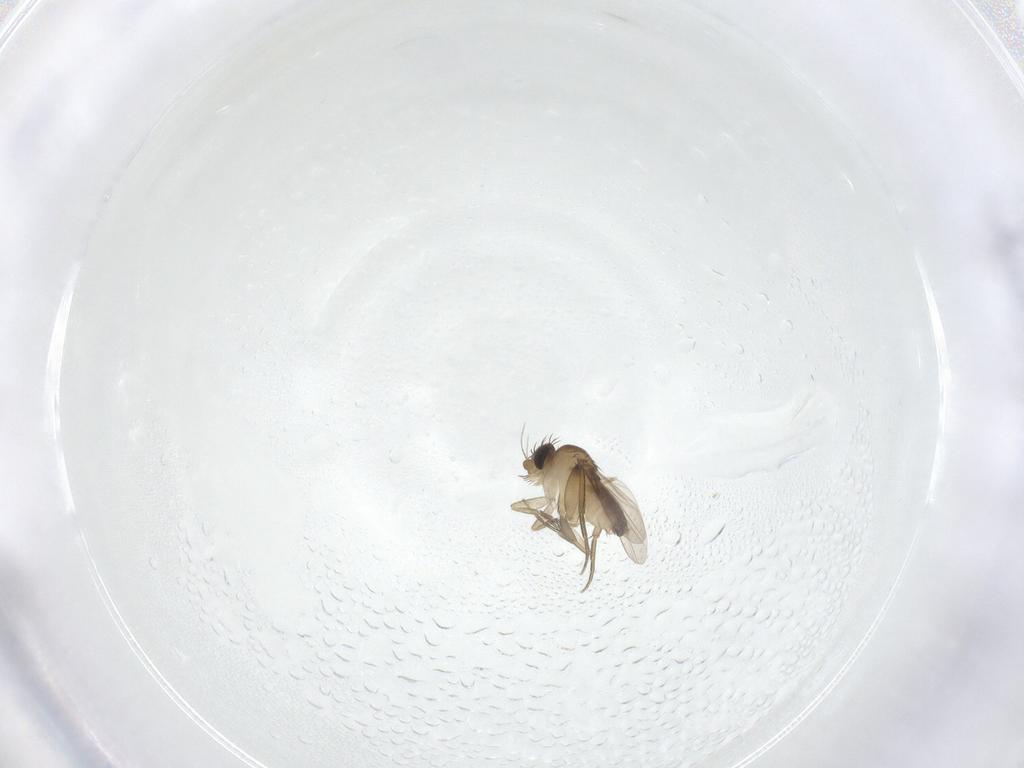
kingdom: Animalia
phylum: Arthropoda
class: Insecta
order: Diptera
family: Phoridae
